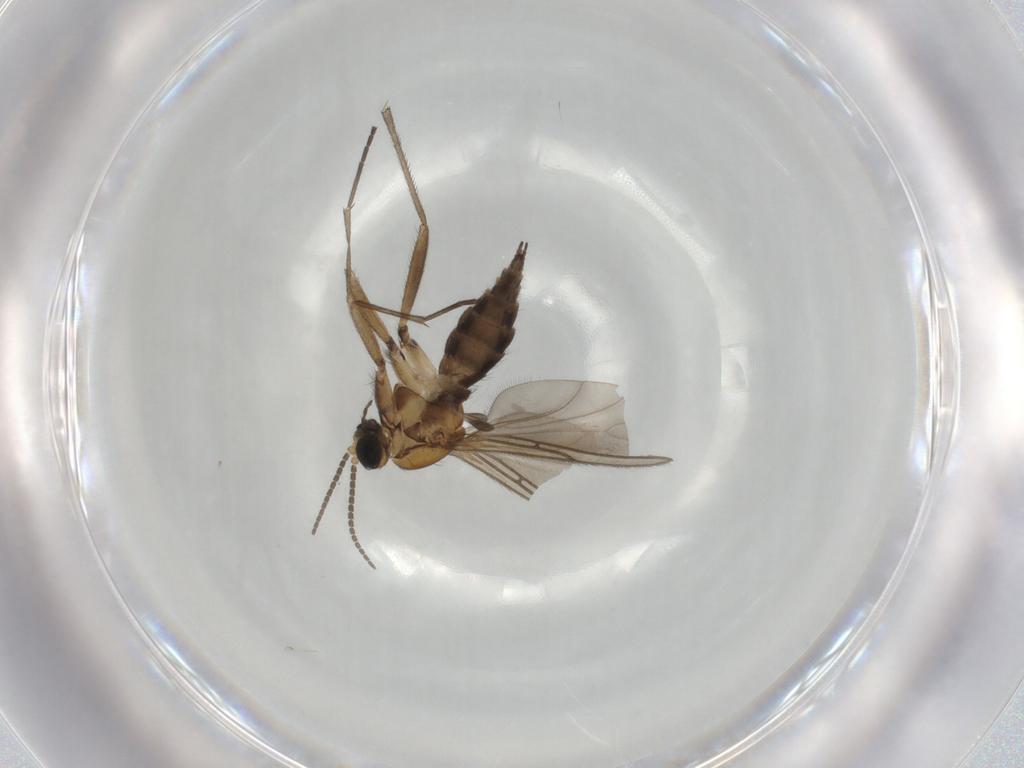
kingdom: Animalia
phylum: Arthropoda
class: Insecta
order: Diptera
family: Sciaridae
